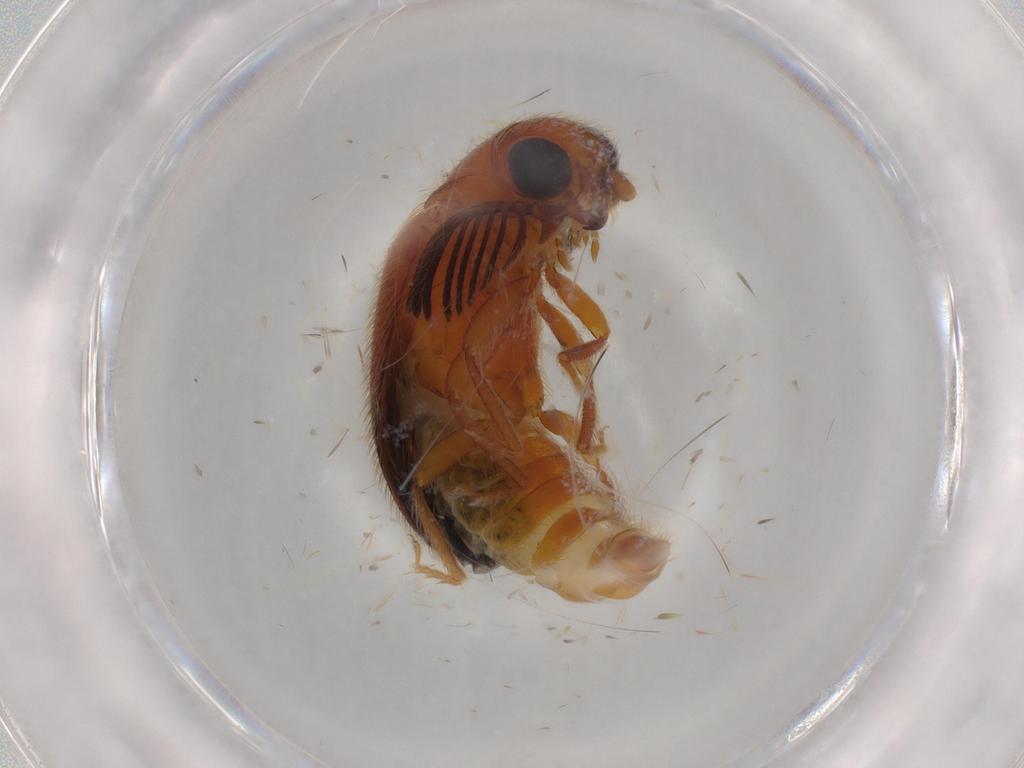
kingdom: Animalia
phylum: Arthropoda
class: Insecta
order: Coleoptera
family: Elateridae
